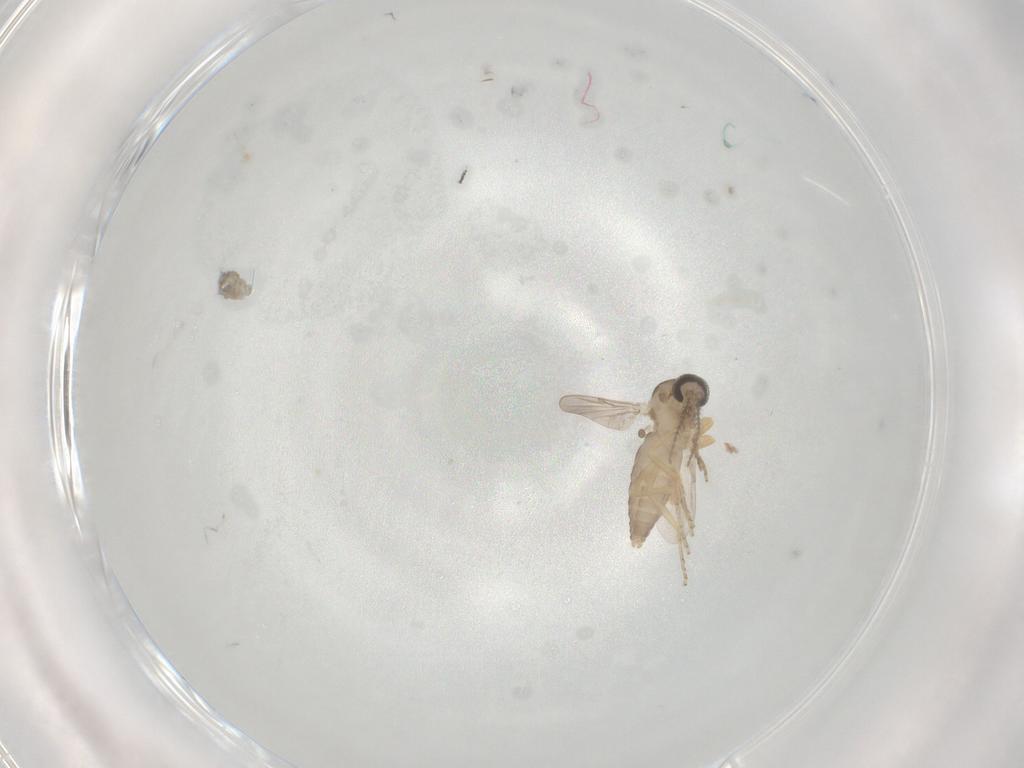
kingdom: Animalia
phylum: Arthropoda
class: Insecta
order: Diptera
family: Ceratopogonidae
